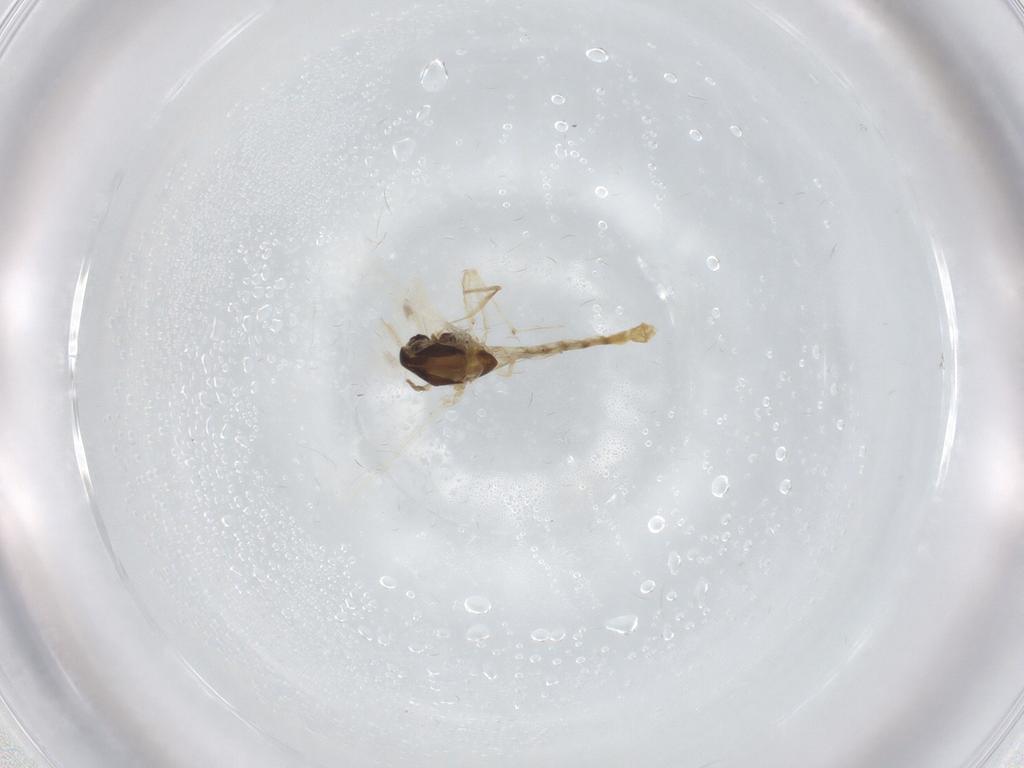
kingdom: Animalia
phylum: Arthropoda
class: Insecta
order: Diptera
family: Chironomidae
